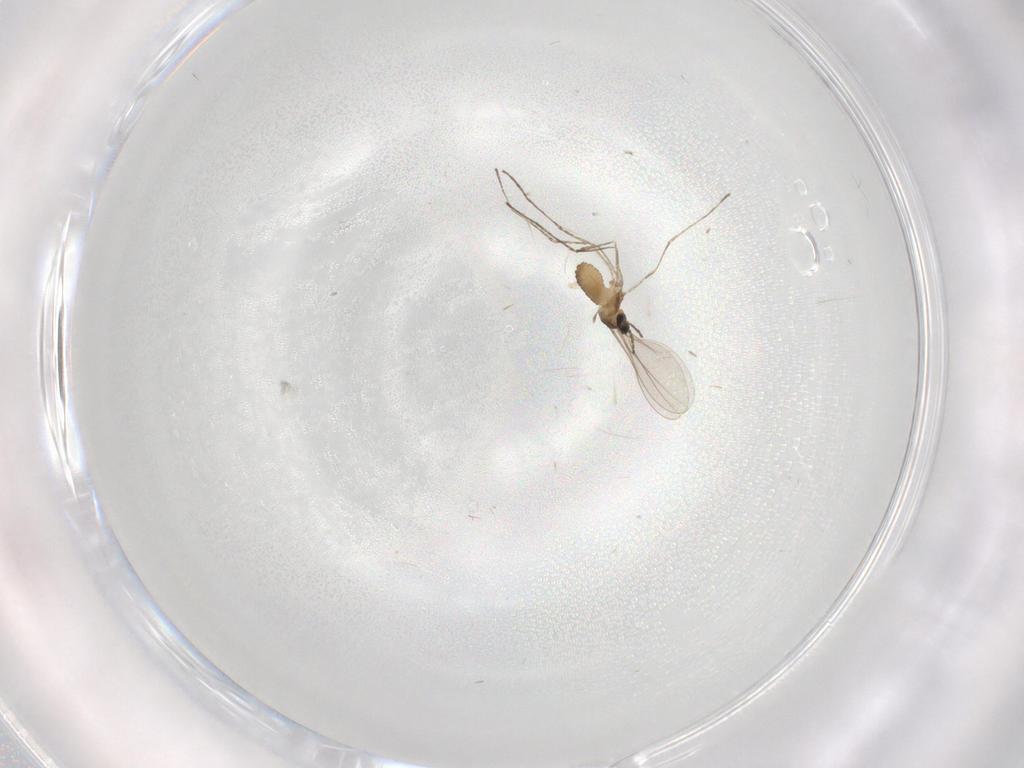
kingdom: Animalia
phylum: Arthropoda
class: Insecta
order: Diptera
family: Cecidomyiidae
